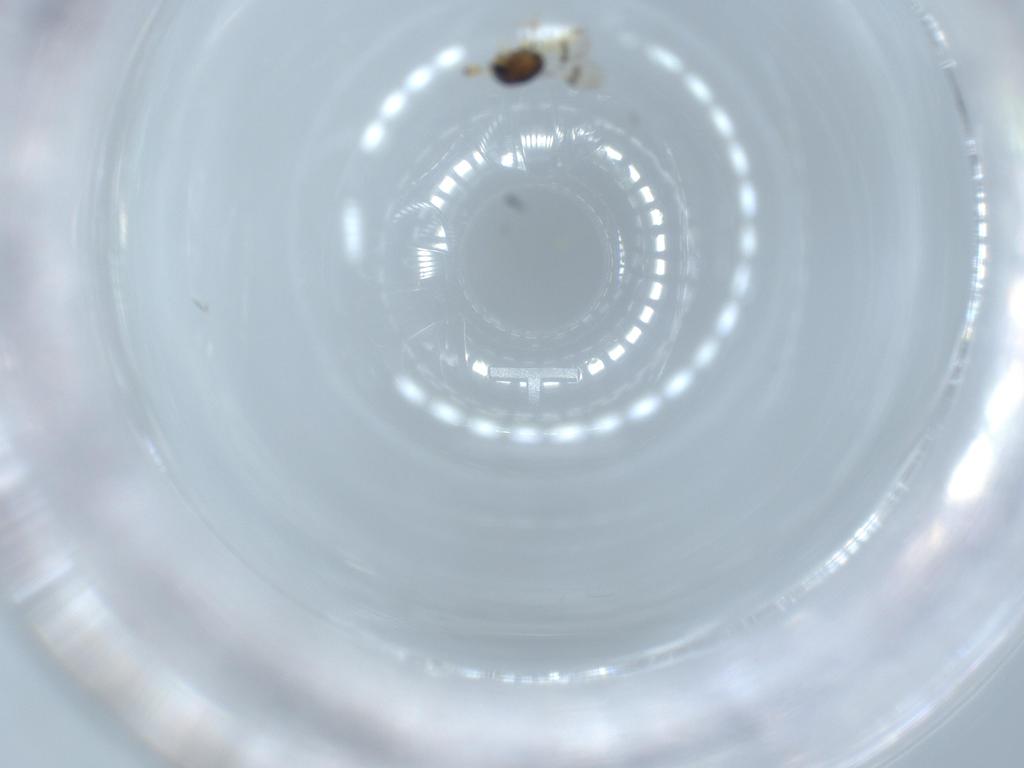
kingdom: Animalia
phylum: Arthropoda
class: Insecta
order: Hymenoptera
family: Scelionidae
